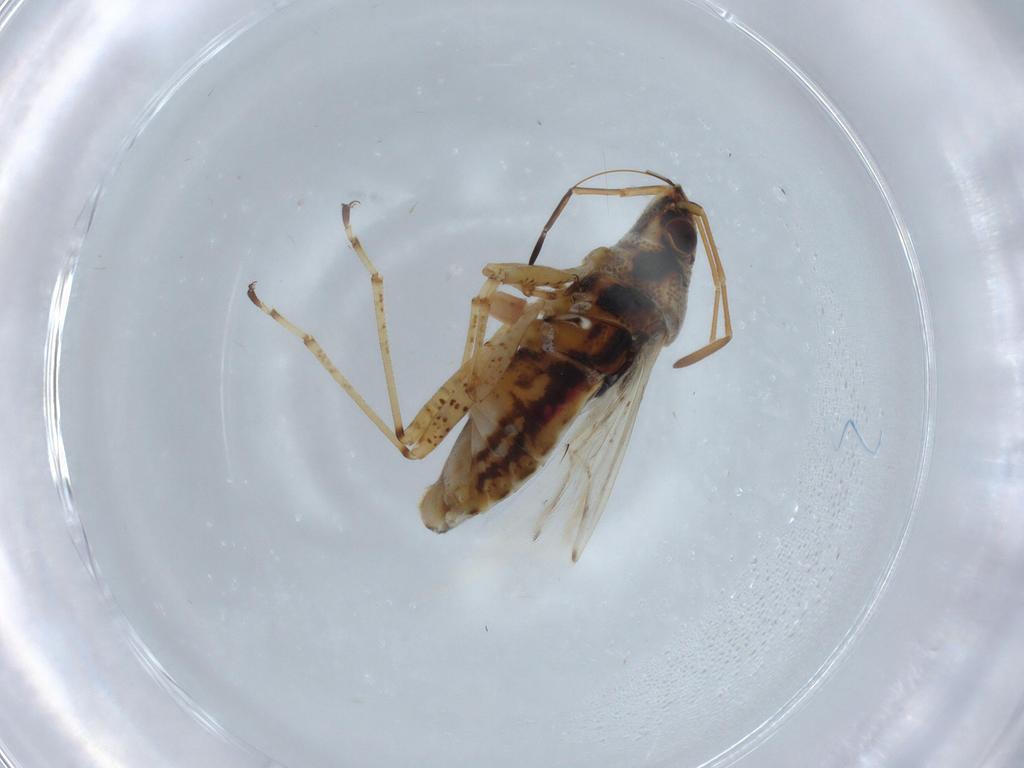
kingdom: Animalia
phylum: Arthropoda
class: Insecta
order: Hemiptera
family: Lygaeidae
